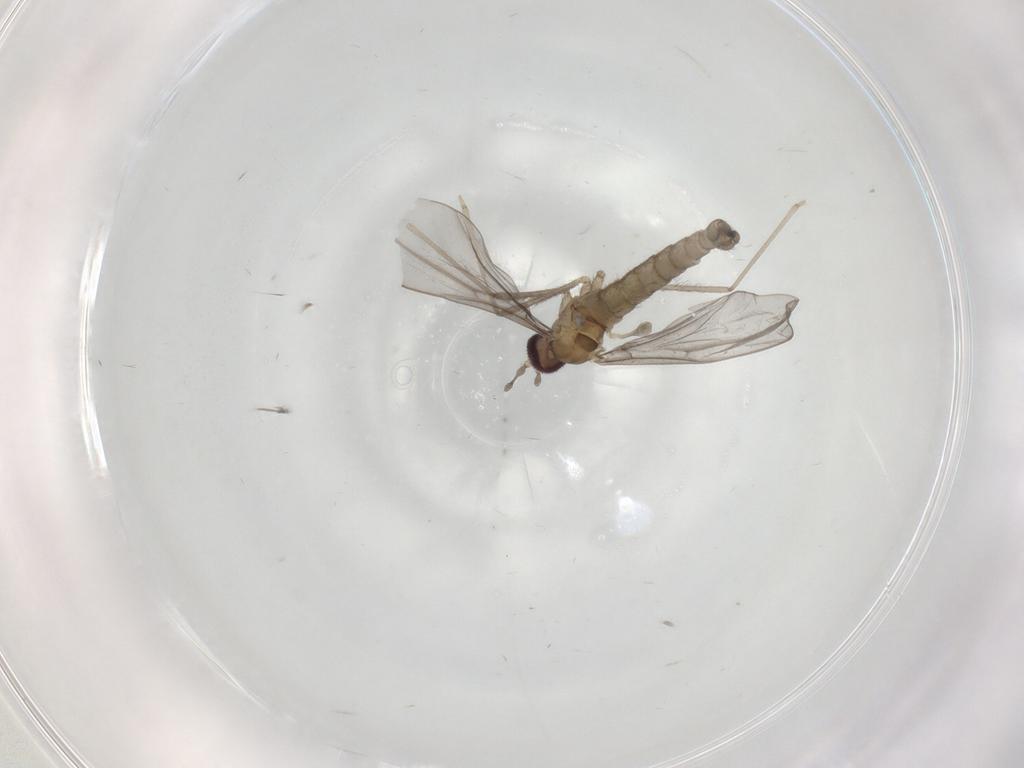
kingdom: Animalia
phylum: Arthropoda
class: Insecta
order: Diptera
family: Cecidomyiidae
